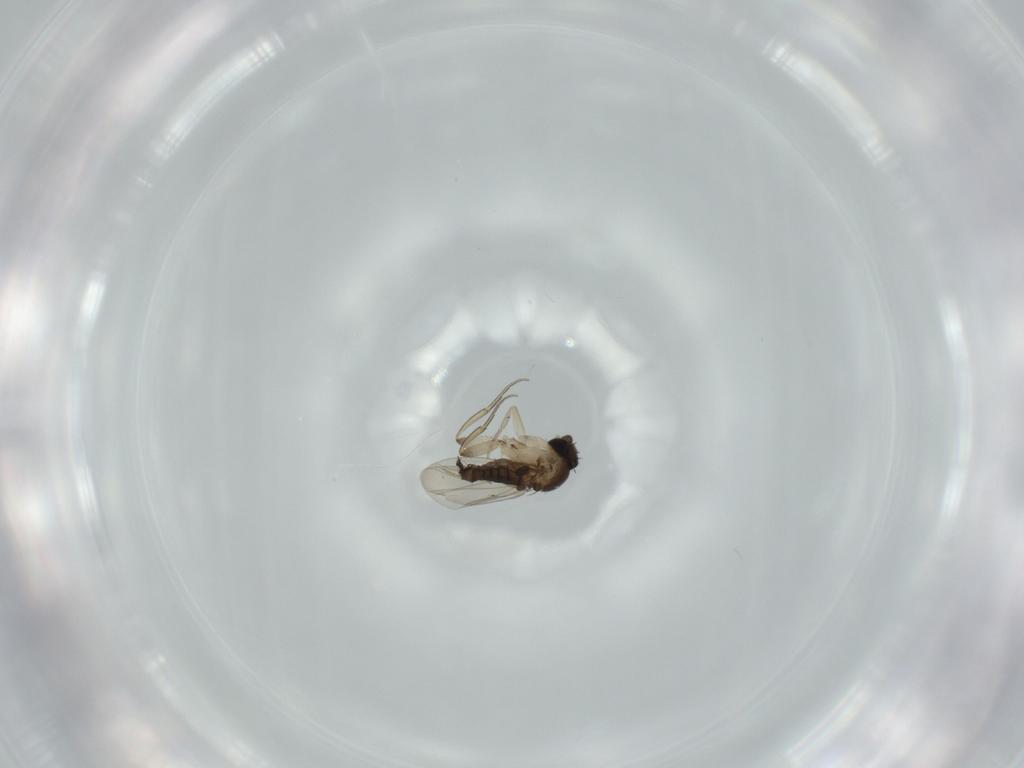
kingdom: Animalia
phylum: Arthropoda
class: Insecta
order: Diptera
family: Phoridae
